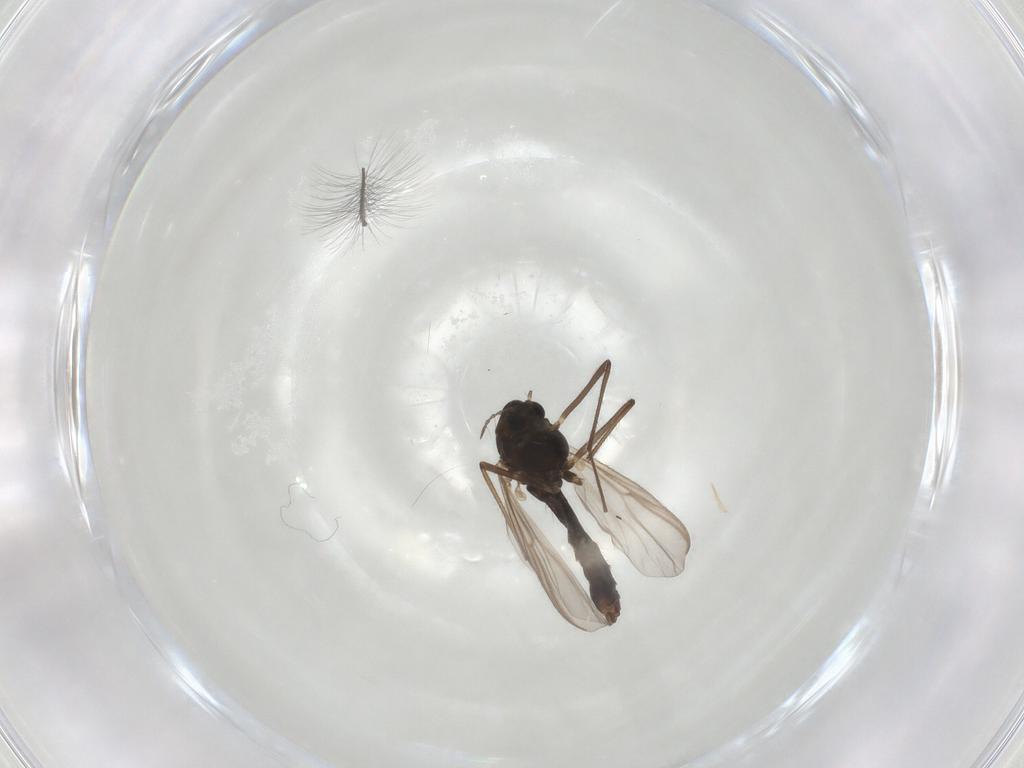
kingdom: Animalia
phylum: Arthropoda
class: Insecta
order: Diptera
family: Chironomidae
